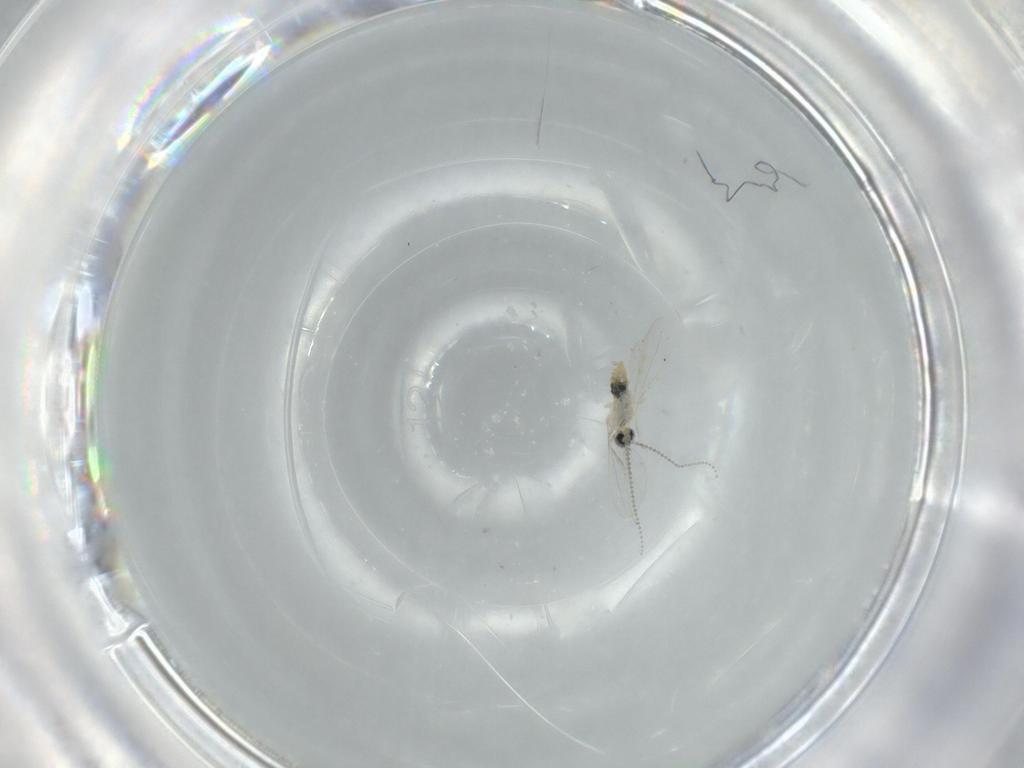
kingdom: Animalia
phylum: Arthropoda
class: Insecta
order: Diptera
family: Cecidomyiidae
